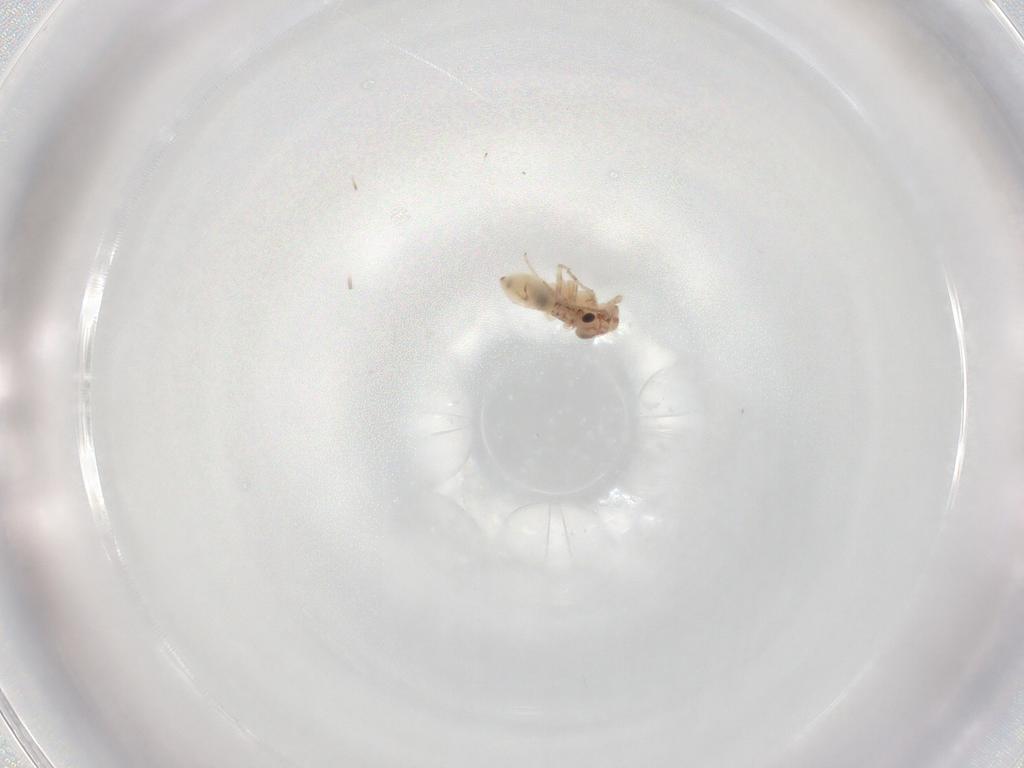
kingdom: Animalia
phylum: Arthropoda
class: Insecta
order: Psocodea
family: Lepidopsocidae
